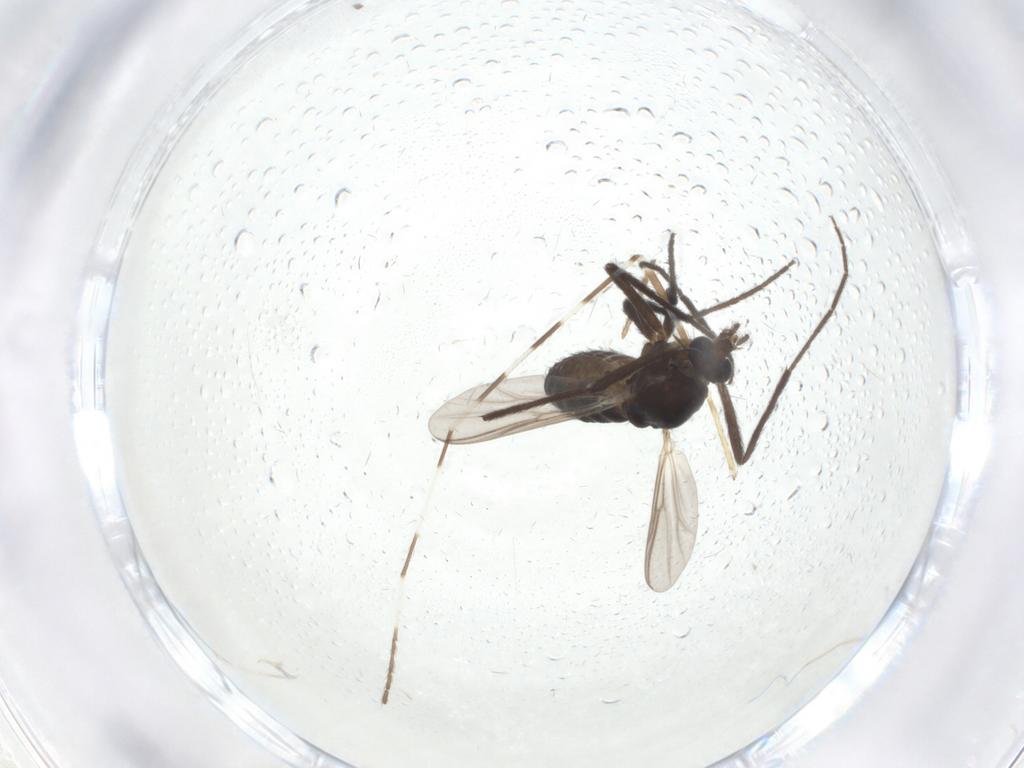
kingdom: Animalia
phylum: Arthropoda
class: Insecta
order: Diptera
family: Chironomidae
